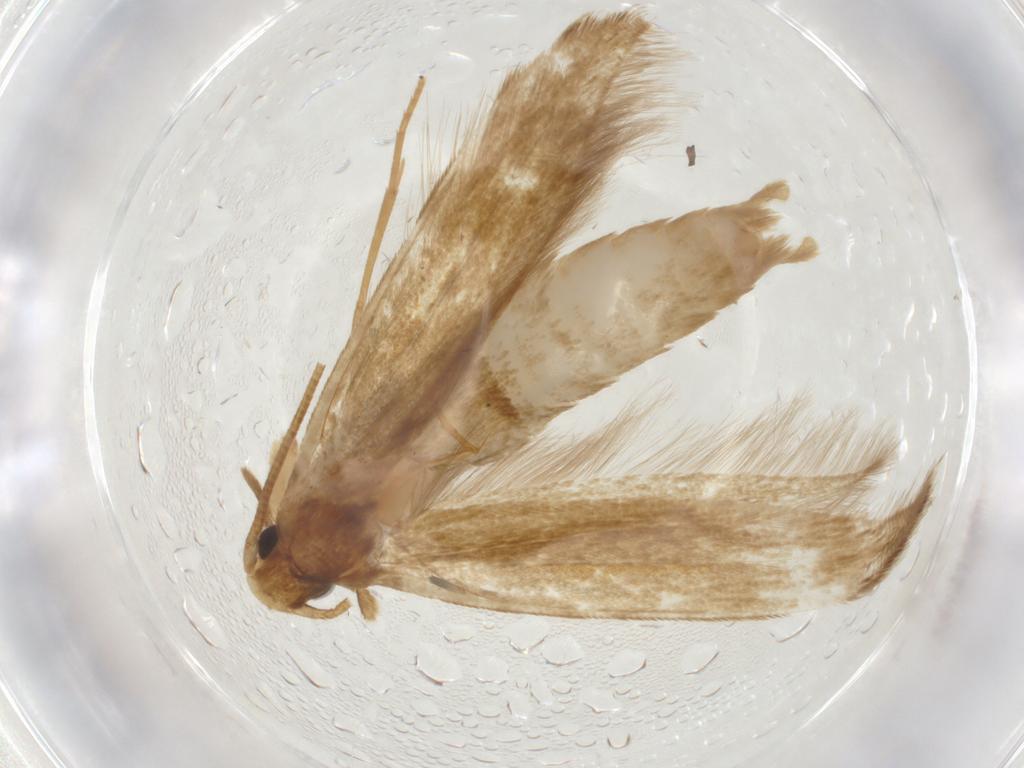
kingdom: Animalia
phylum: Arthropoda
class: Insecta
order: Lepidoptera
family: Tineidae
